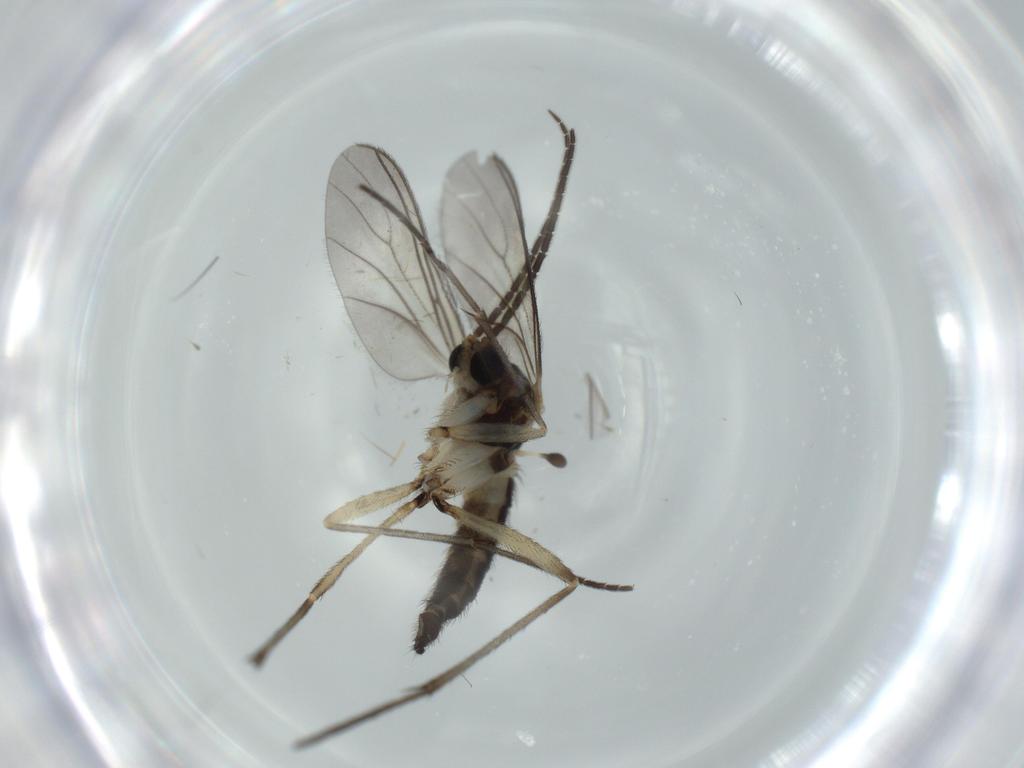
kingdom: Animalia
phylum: Arthropoda
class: Insecta
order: Diptera
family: Sciaridae
